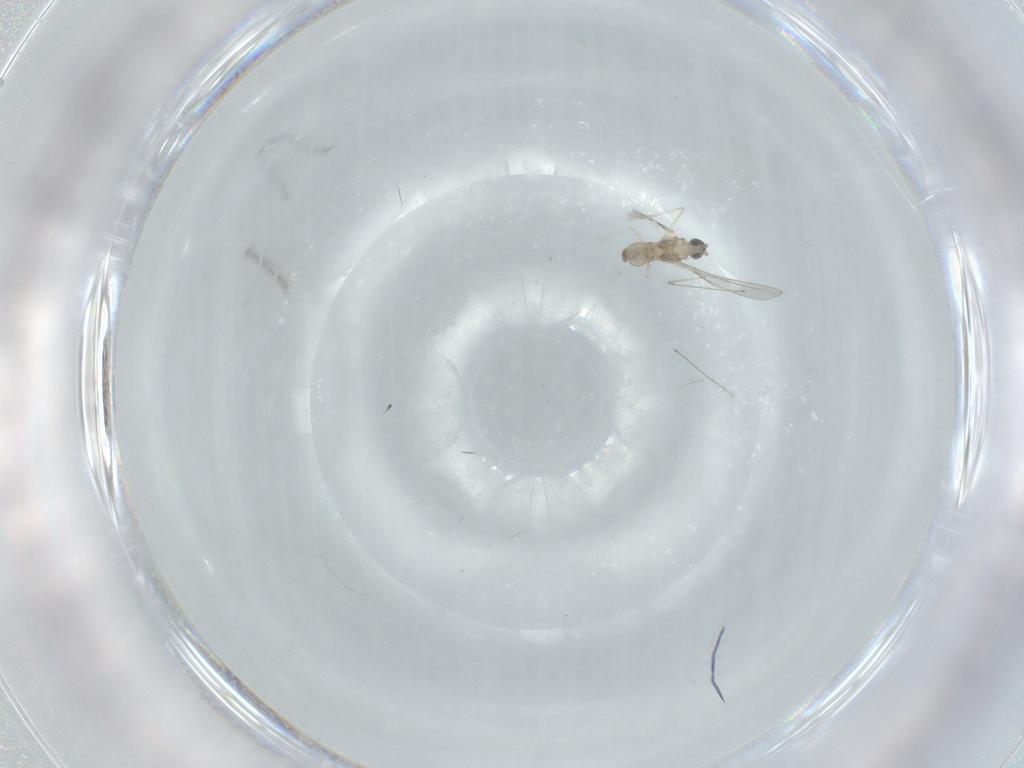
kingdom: Animalia
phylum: Arthropoda
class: Insecta
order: Diptera
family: Cecidomyiidae
